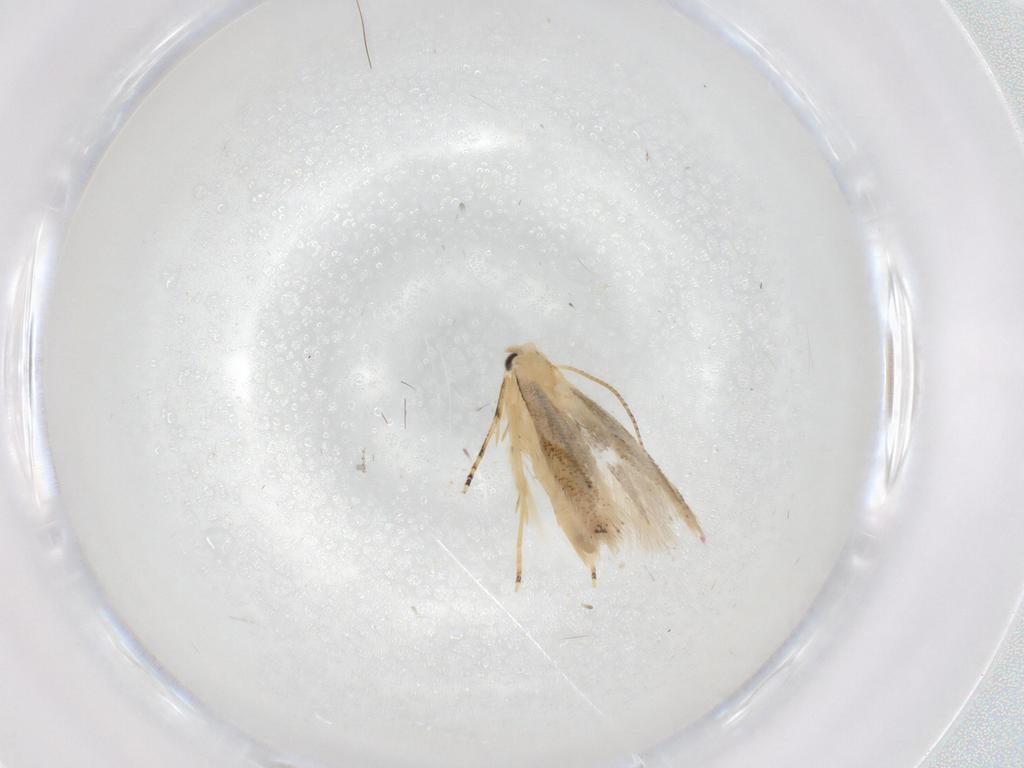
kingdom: Animalia
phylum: Arthropoda
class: Insecta
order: Lepidoptera
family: Bucculatricidae
